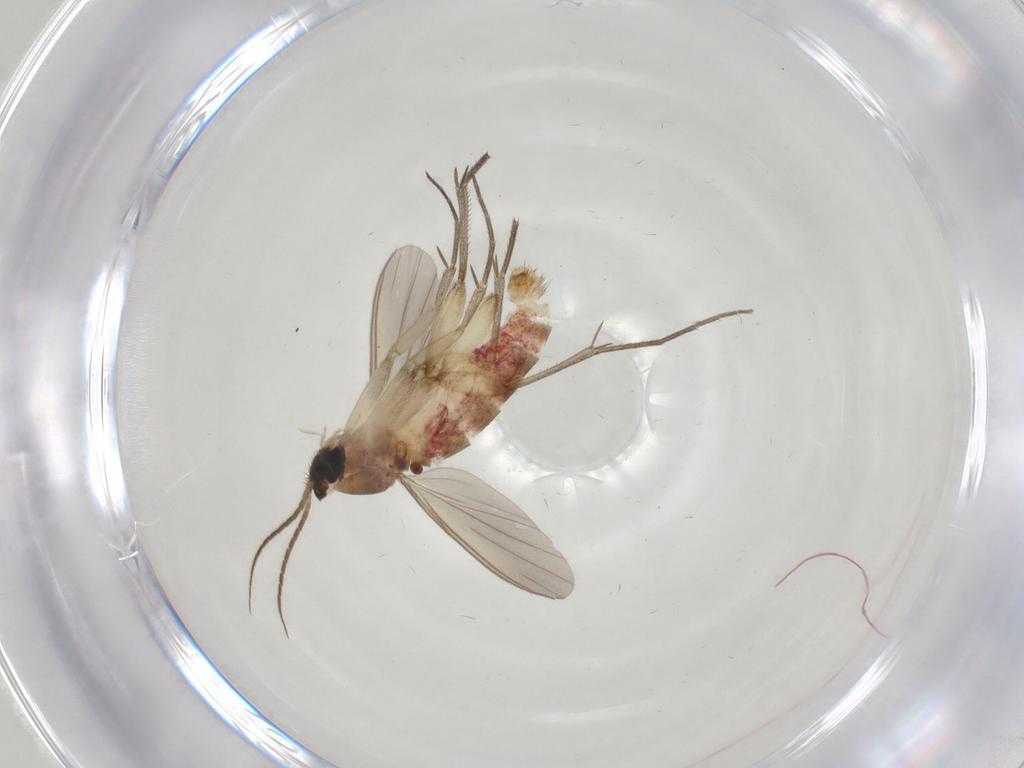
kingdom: Animalia
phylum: Arthropoda
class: Insecta
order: Diptera
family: Mycetophilidae
